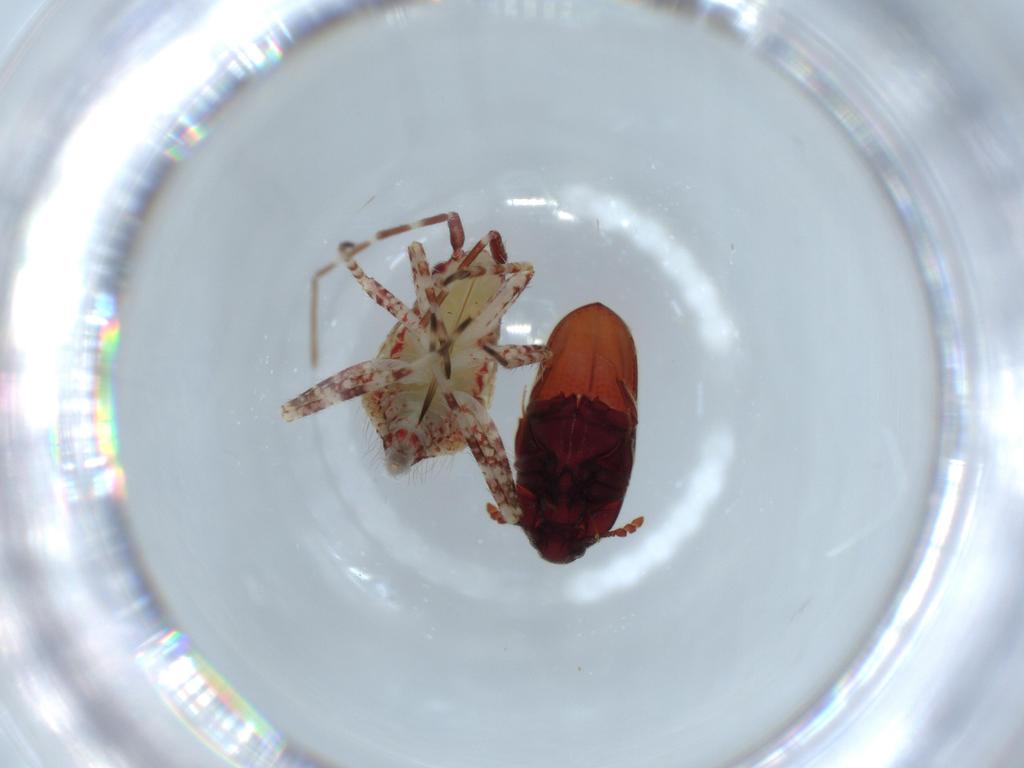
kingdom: Animalia
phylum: Arthropoda
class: Insecta
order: Hemiptera
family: Miridae
